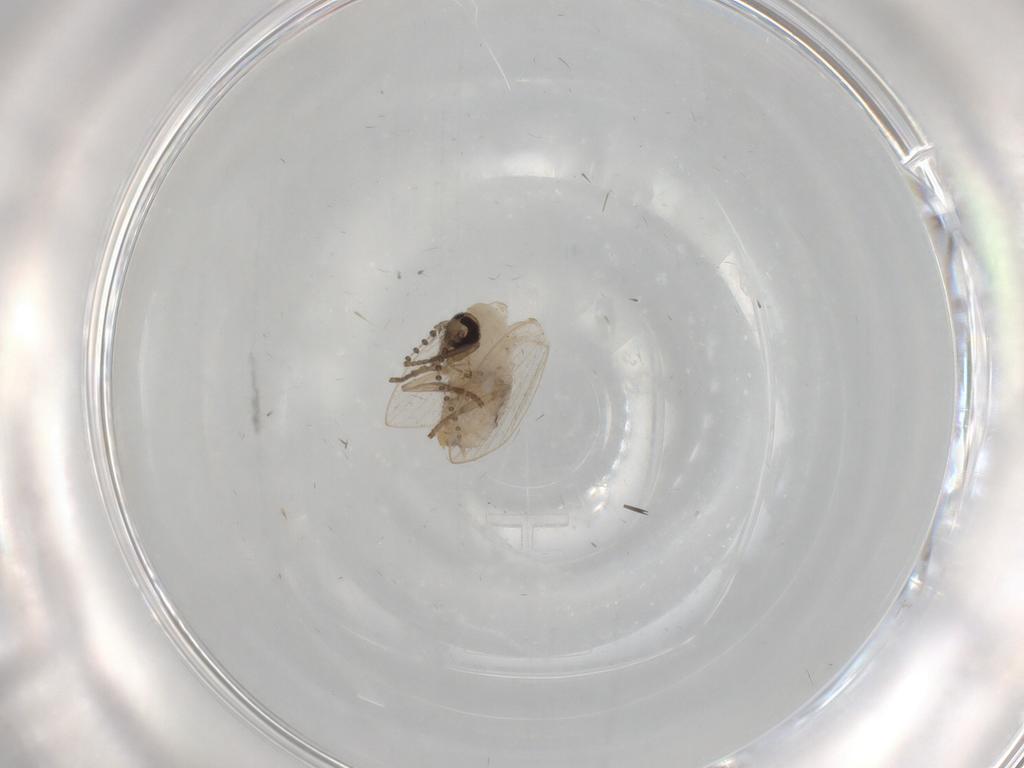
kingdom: Animalia
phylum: Arthropoda
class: Insecta
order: Diptera
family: Psychodidae
